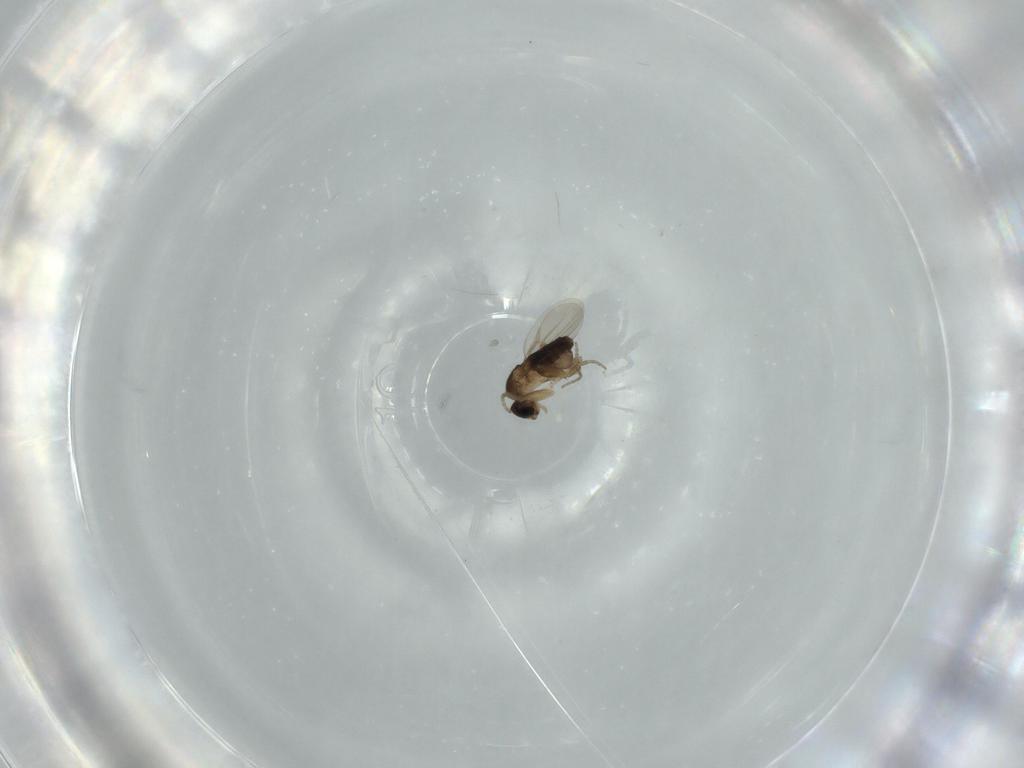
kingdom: Animalia
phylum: Arthropoda
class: Insecta
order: Diptera
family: Phoridae
